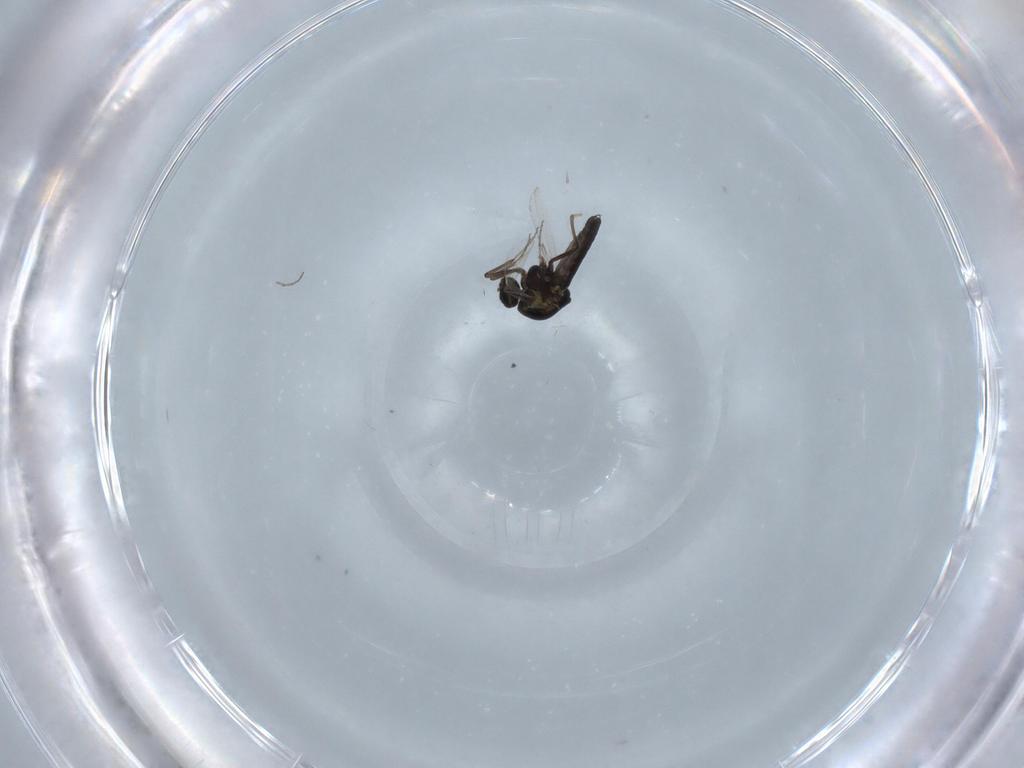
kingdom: Animalia
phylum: Arthropoda
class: Insecta
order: Diptera
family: Ceratopogonidae
